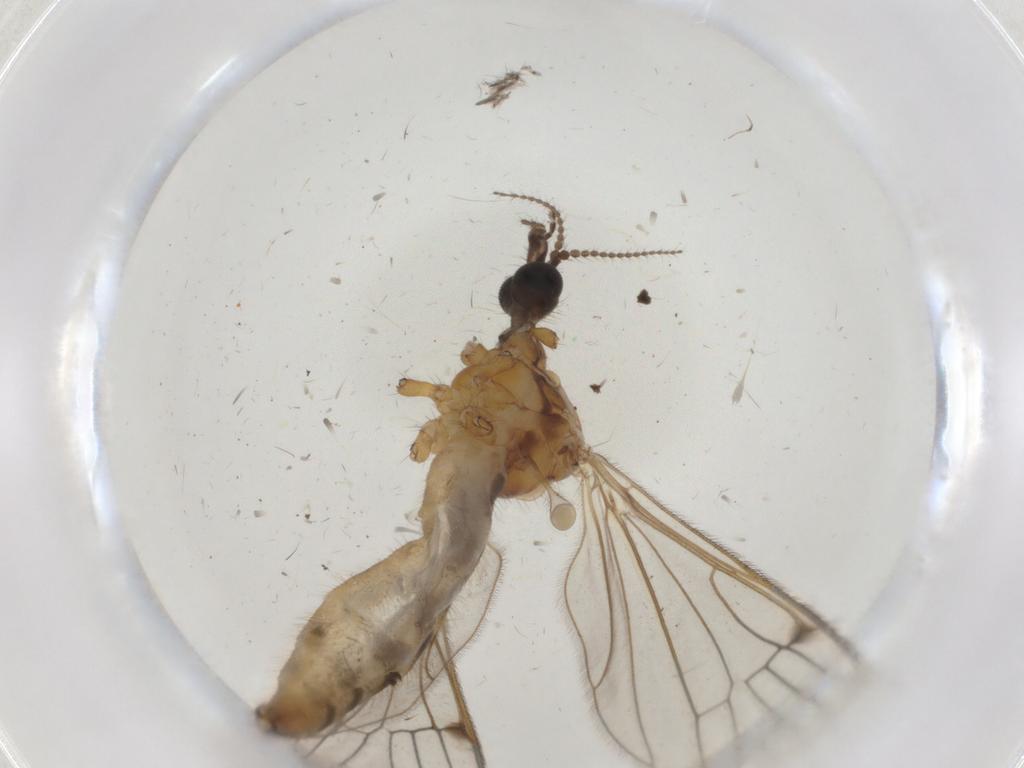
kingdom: Animalia
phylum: Arthropoda
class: Insecta
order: Diptera
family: Limoniidae
